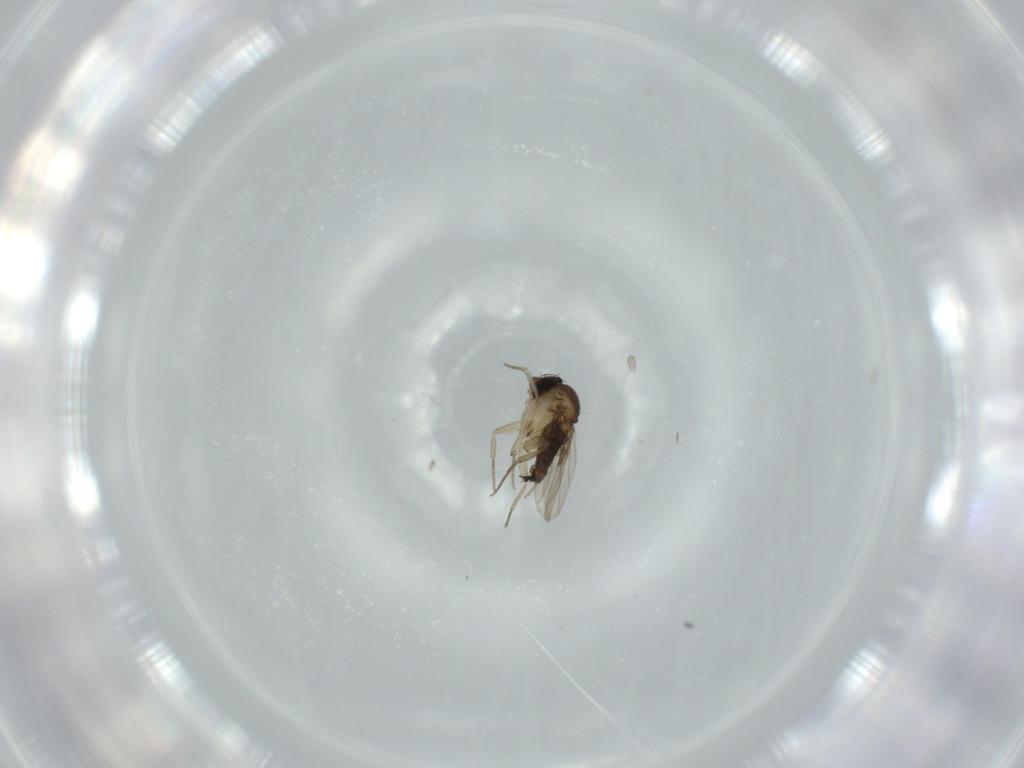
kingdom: Animalia
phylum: Arthropoda
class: Insecta
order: Diptera
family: Phoridae
